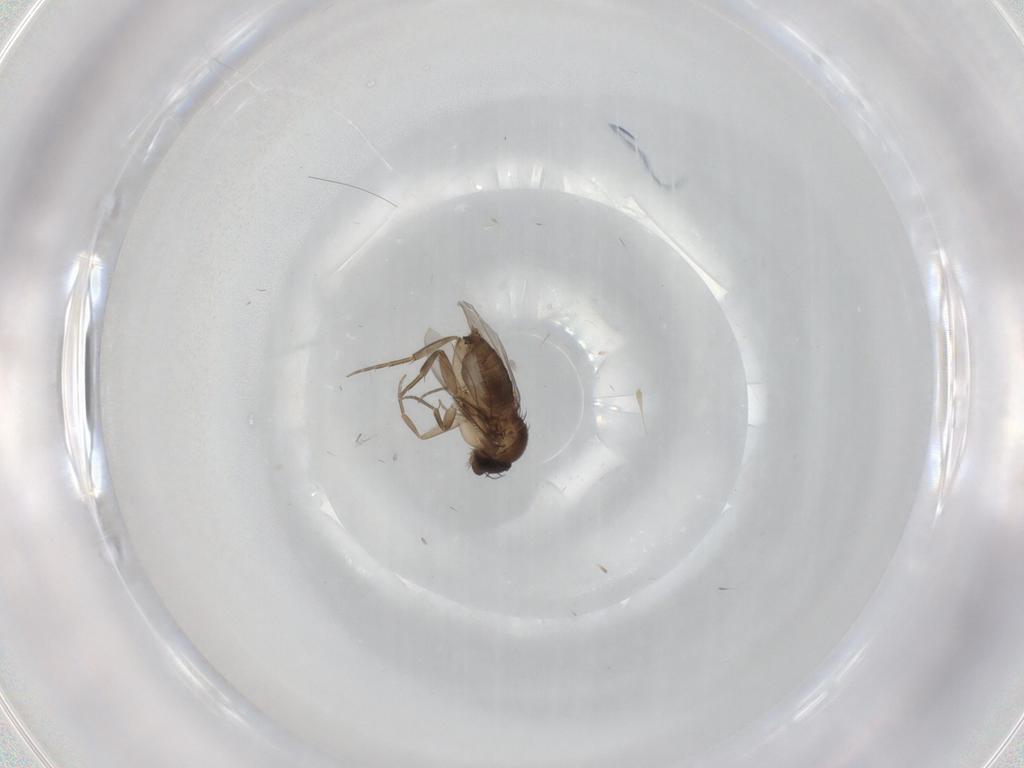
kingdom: Animalia
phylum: Arthropoda
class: Insecta
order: Diptera
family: Phoridae
